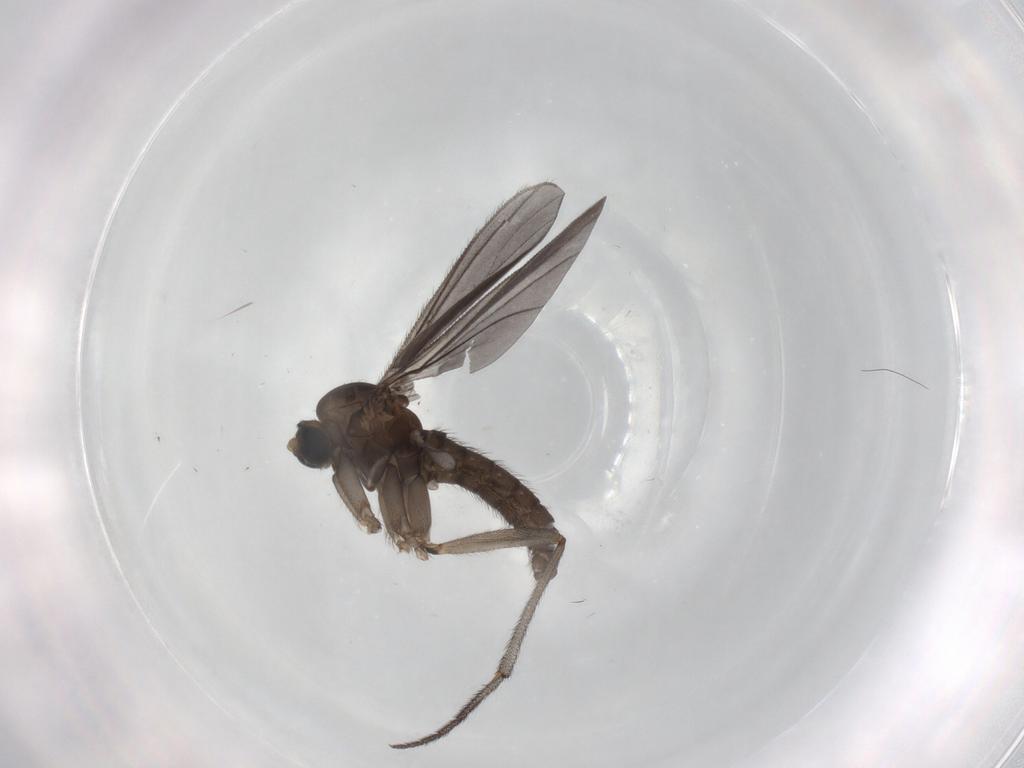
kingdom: Animalia
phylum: Arthropoda
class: Insecta
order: Diptera
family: Sciaridae
